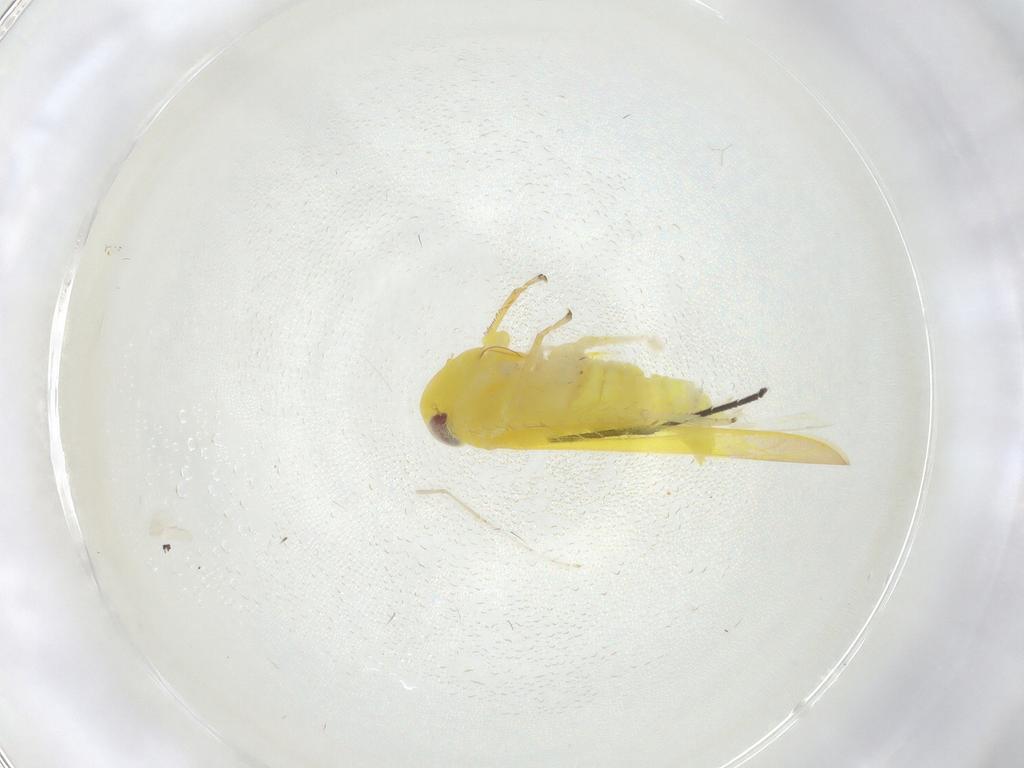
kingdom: Animalia
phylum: Arthropoda
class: Insecta
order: Hemiptera
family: Cicadellidae
